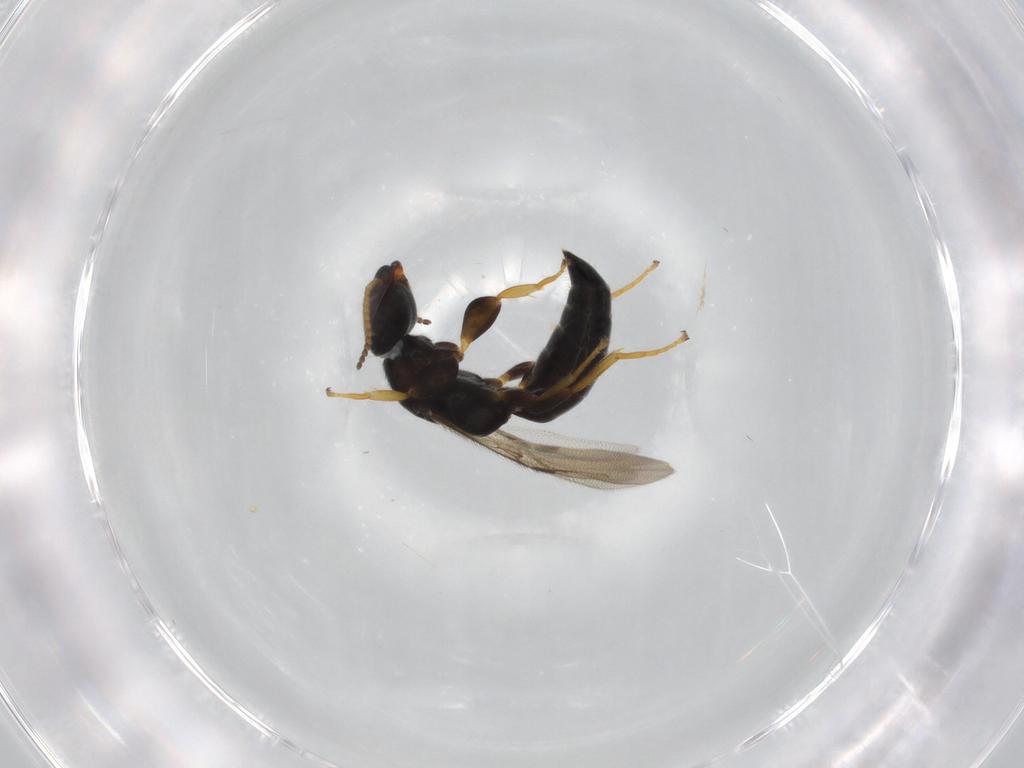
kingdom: Animalia
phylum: Arthropoda
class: Insecta
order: Hymenoptera
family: Bethylidae
